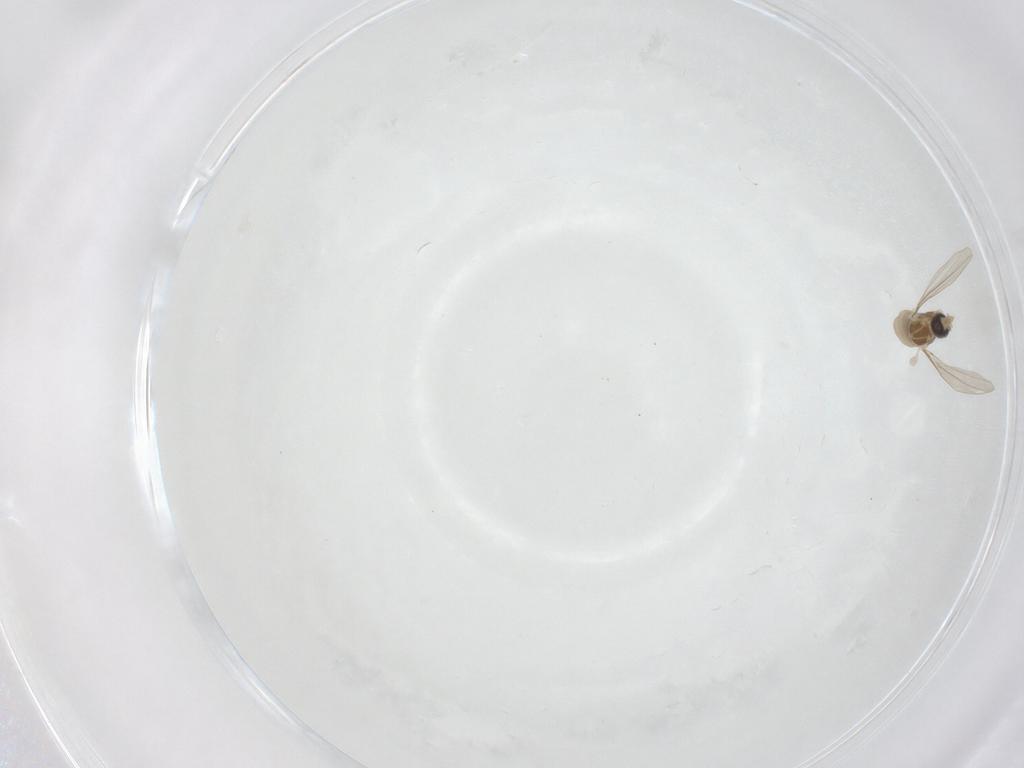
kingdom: Animalia
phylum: Arthropoda
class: Insecta
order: Diptera
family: Cecidomyiidae
